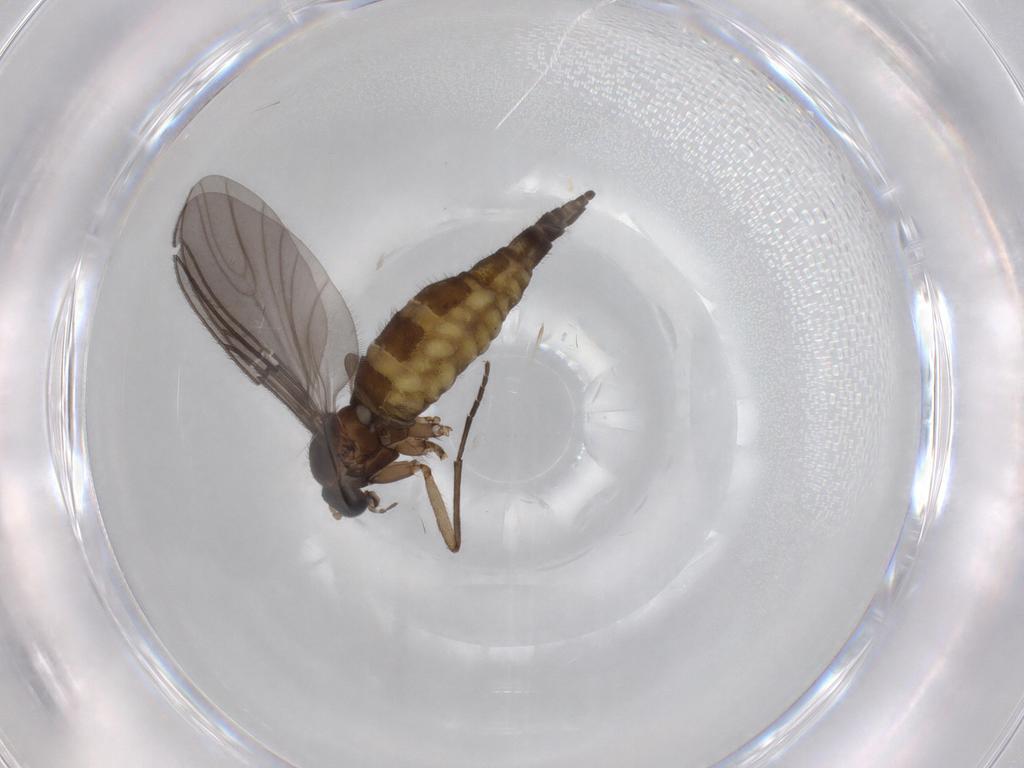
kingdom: Animalia
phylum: Arthropoda
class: Insecta
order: Diptera
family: Sciaridae
